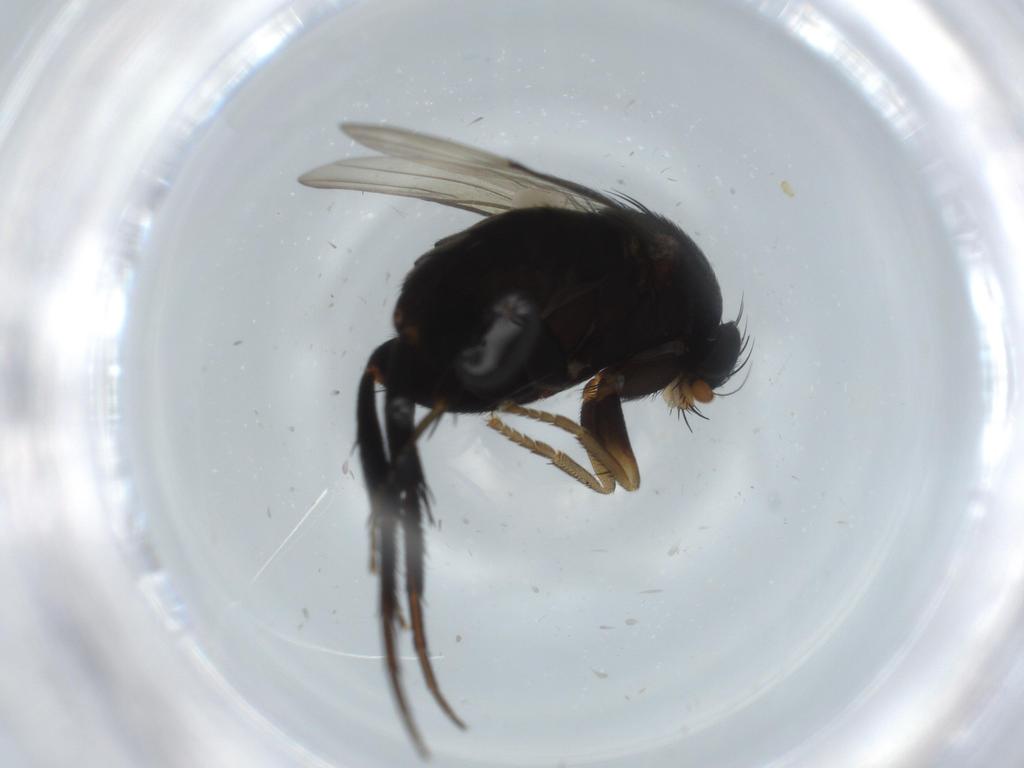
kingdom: Animalia
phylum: Arthropoda
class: Insecta
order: Diptera
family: Phoridae
